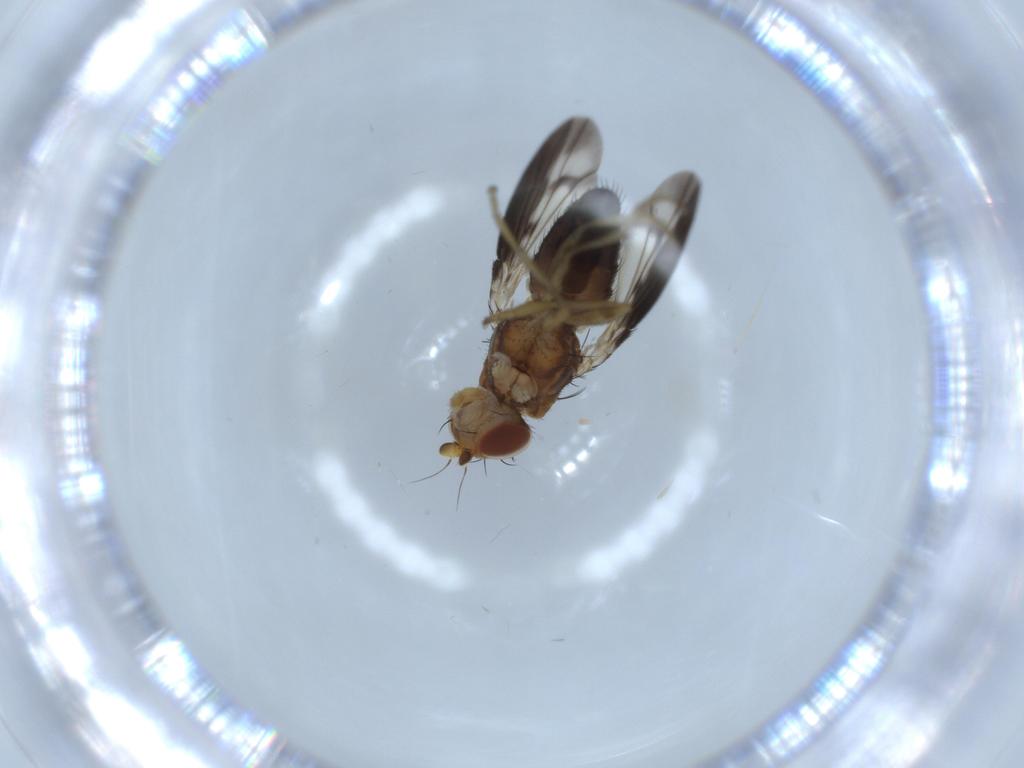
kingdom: Animalia
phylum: Arthropoda
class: Insecta
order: Diptera
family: Heleomyzidae
